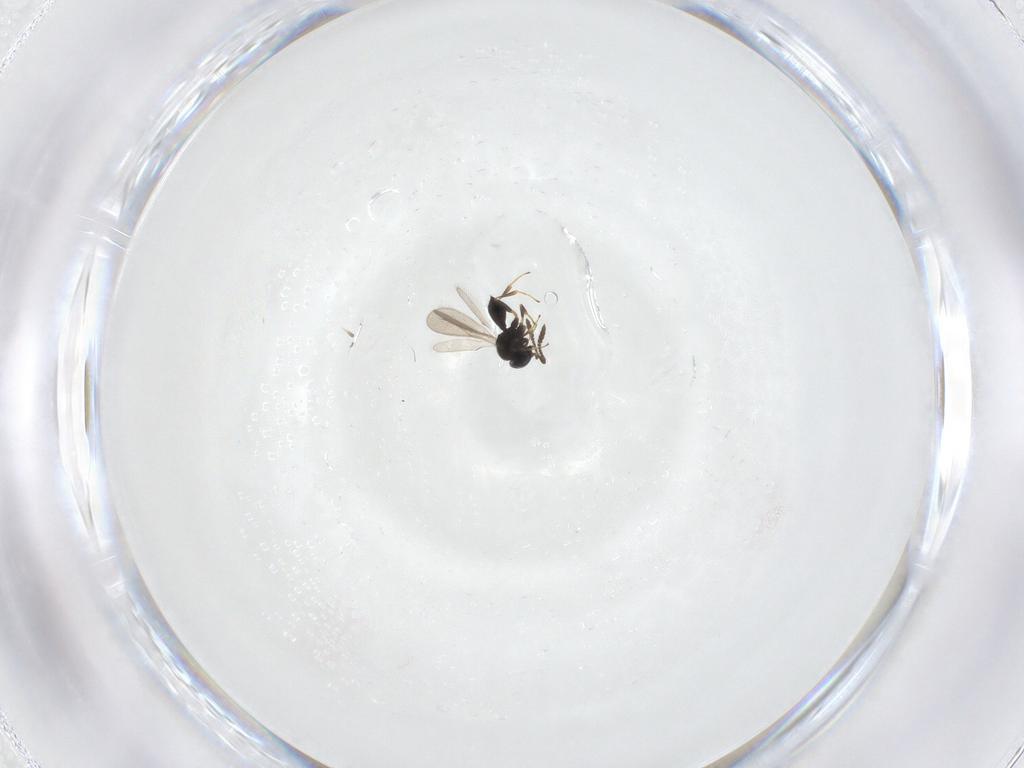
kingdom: Animalia
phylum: Arthropoda
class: Insecta
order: Hymenoptera
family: Scelionidae
